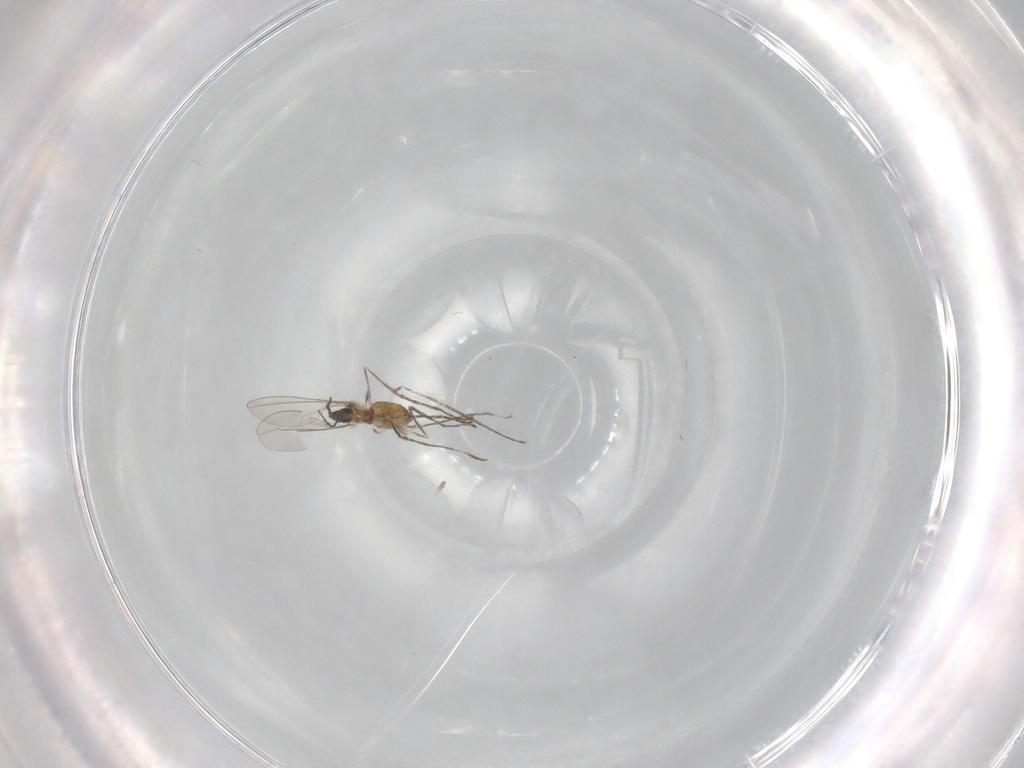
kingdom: Animalia
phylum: Arthropoda
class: Insecta
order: Diptera
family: Cecidomyiidae
